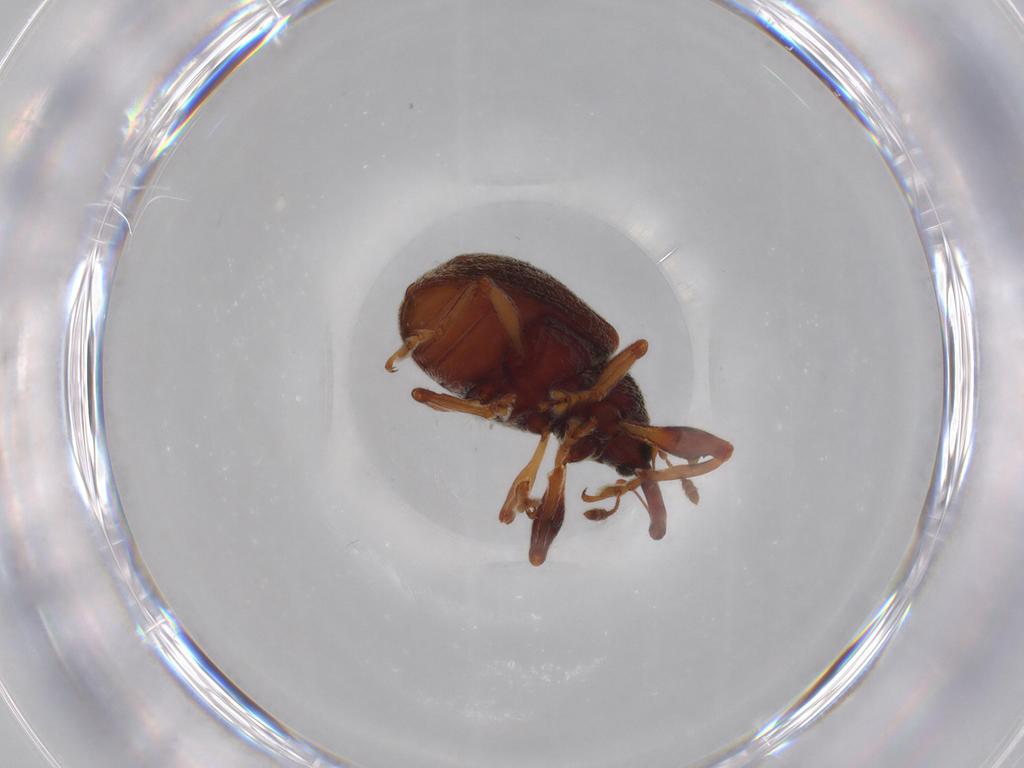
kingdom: Animalia
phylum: Arthropoda
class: Insecta
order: Coleoptera
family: Curculionidae
